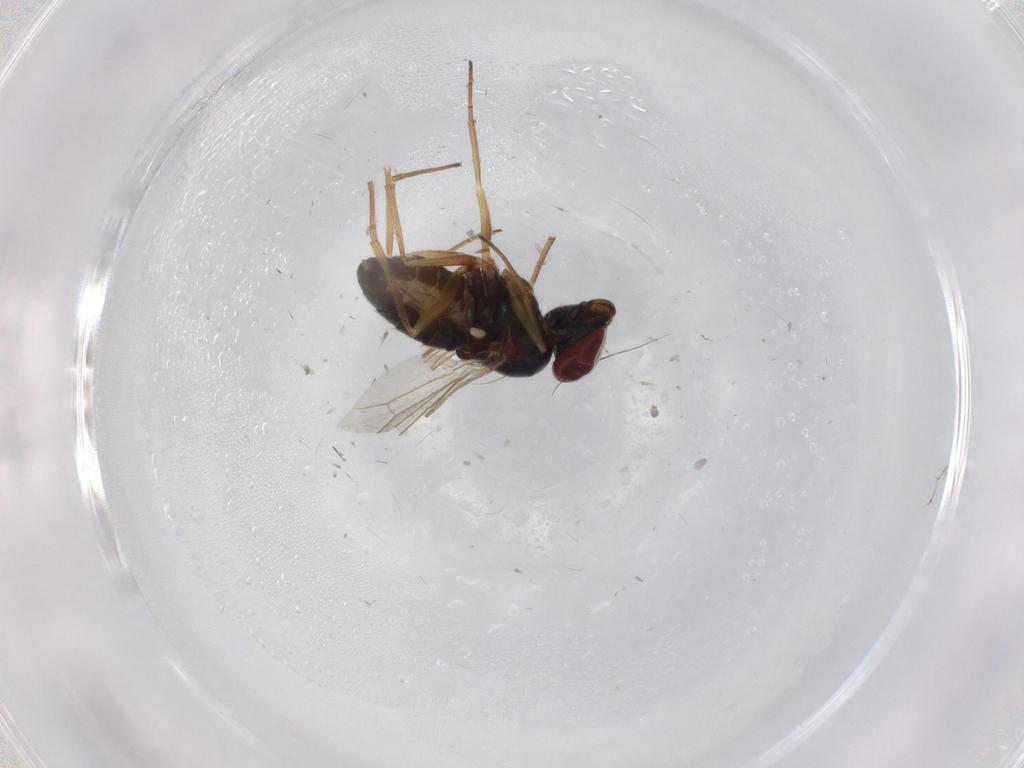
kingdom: Animalia
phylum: Arthropoda
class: Insecta
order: Diptera
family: Dolichopodidae
